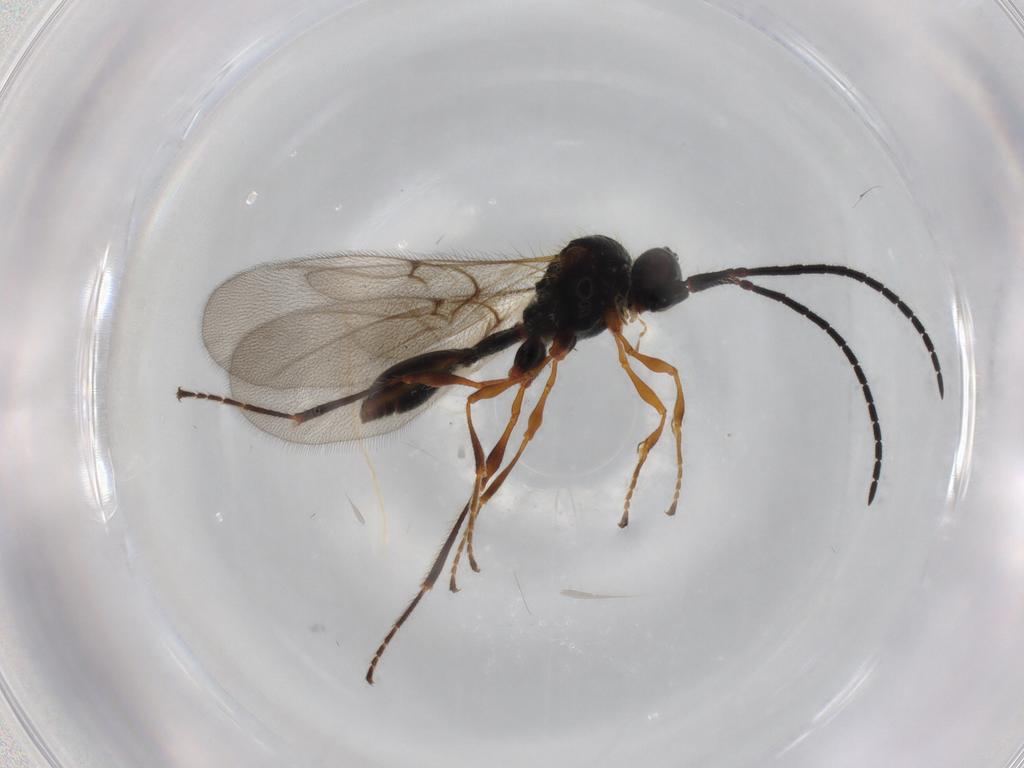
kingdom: Animalia
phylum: Arthropoda
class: Insecta
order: Hymenoptera
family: Diapriidae
